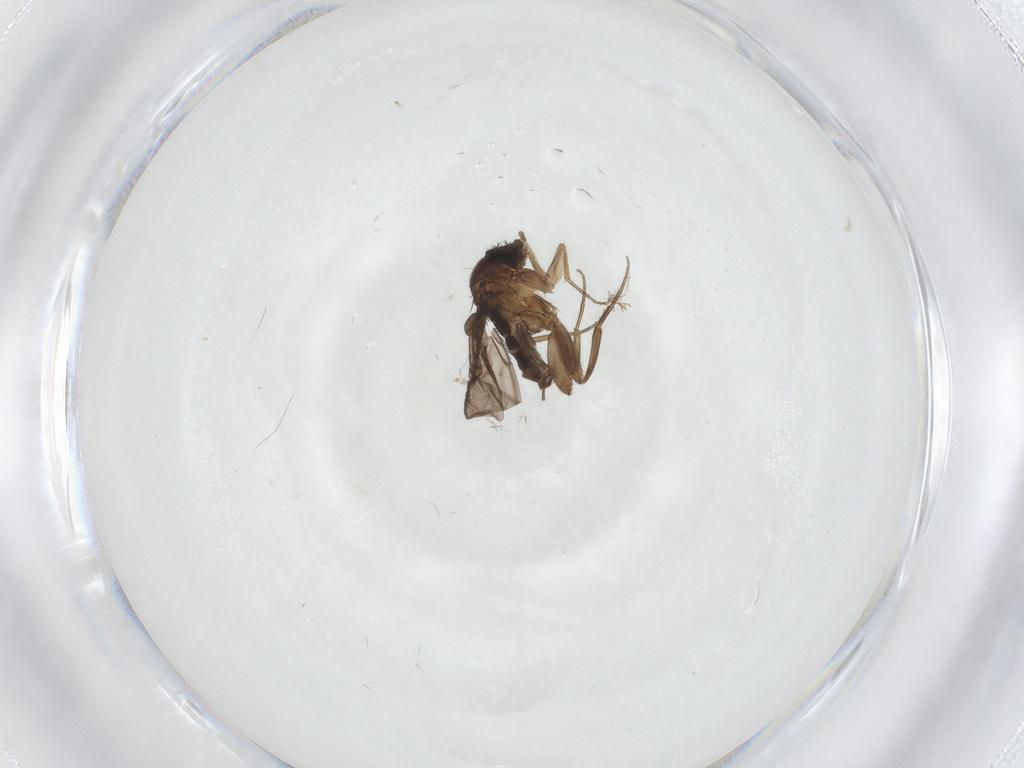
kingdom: Animalia
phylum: Arthropoda
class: Insecta
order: Diptera
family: Phoridae
